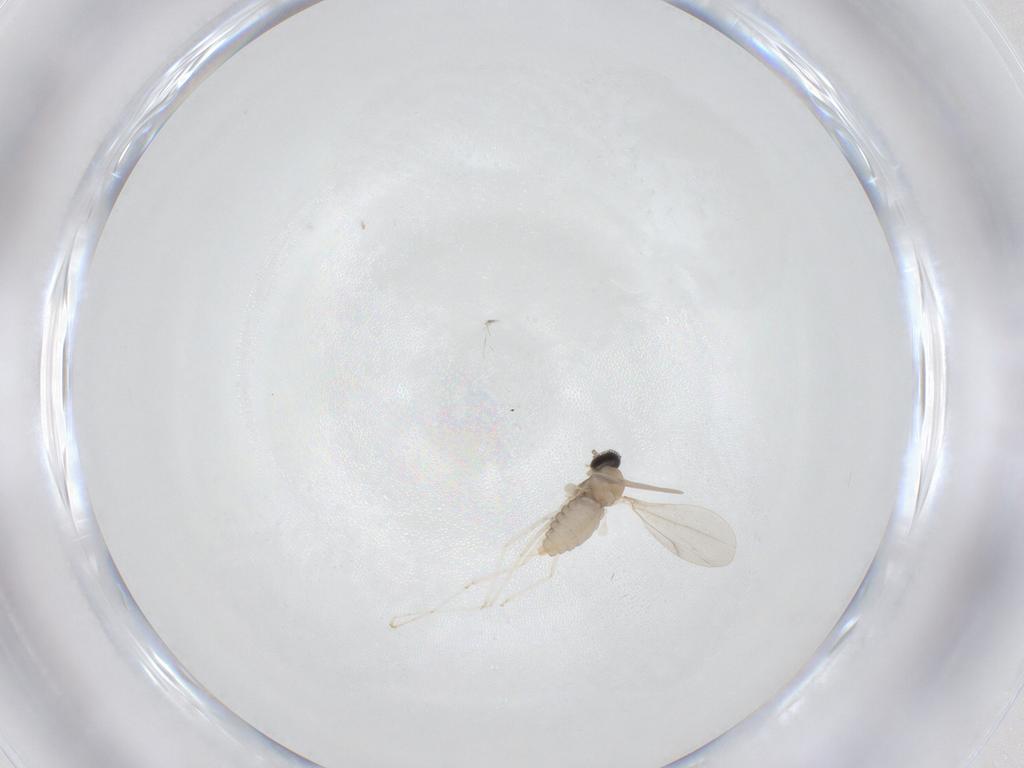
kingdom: Animalia
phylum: Arthropoda
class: Insecta
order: Diptera
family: Cecidomyiidae
